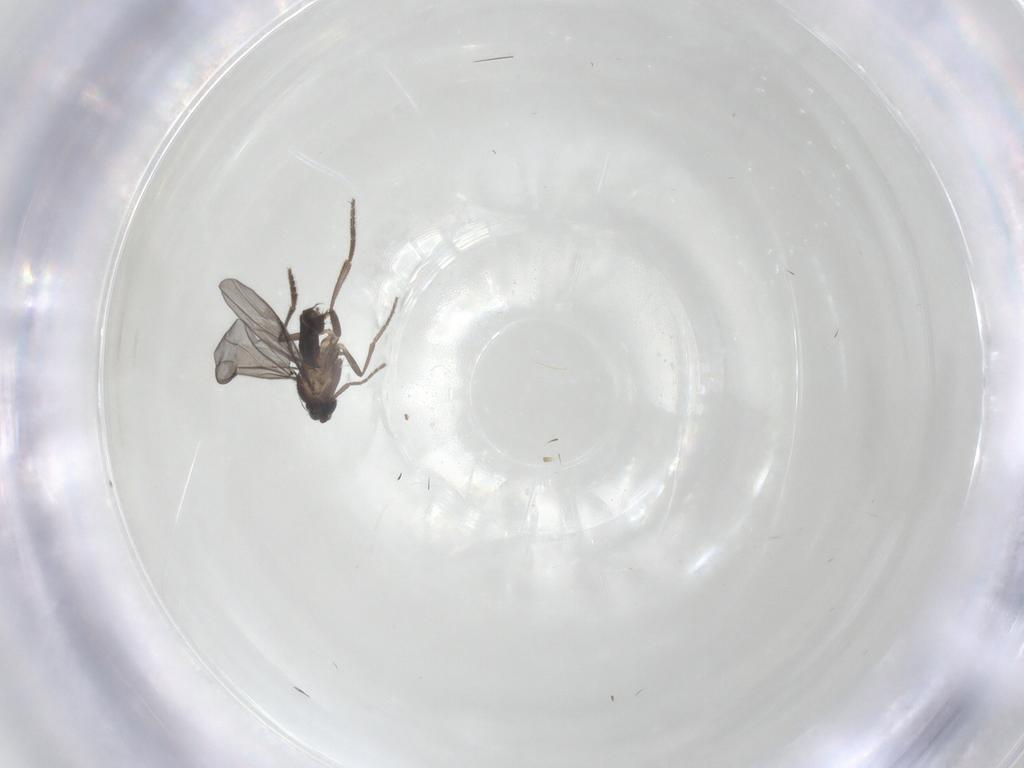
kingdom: Animalia
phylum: Arthropoda
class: Insecta
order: Diptera
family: Phoridae
